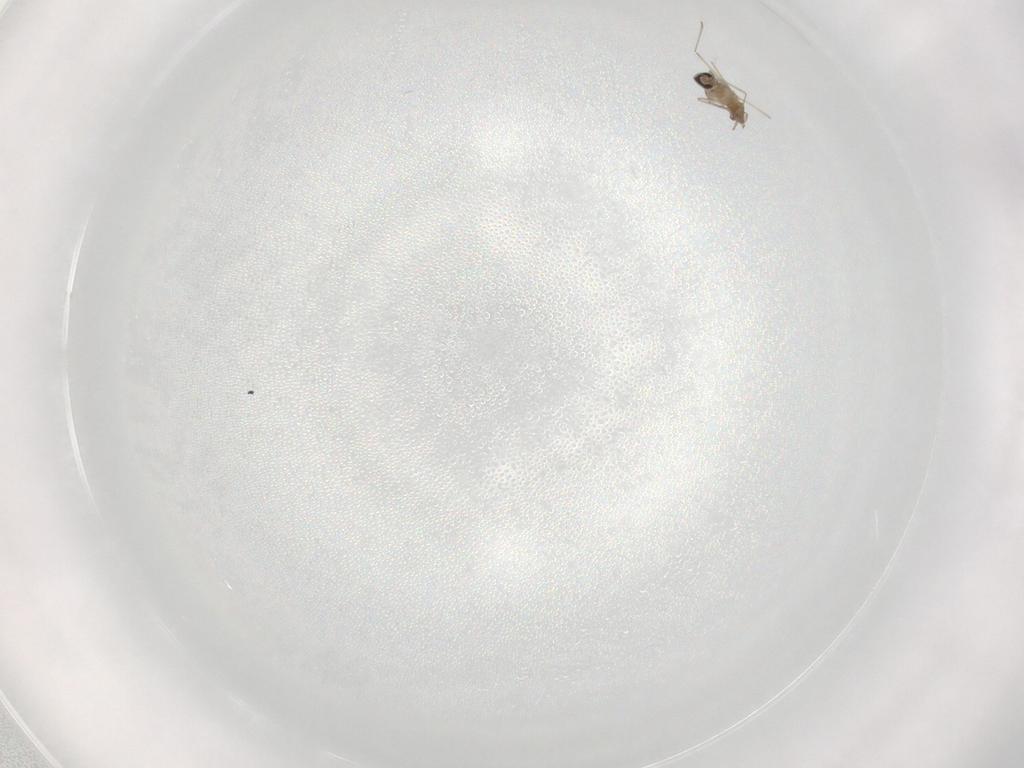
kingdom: Animalia
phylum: Arthropoda
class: Insecta
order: Diptera
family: Cecidomyiidae
